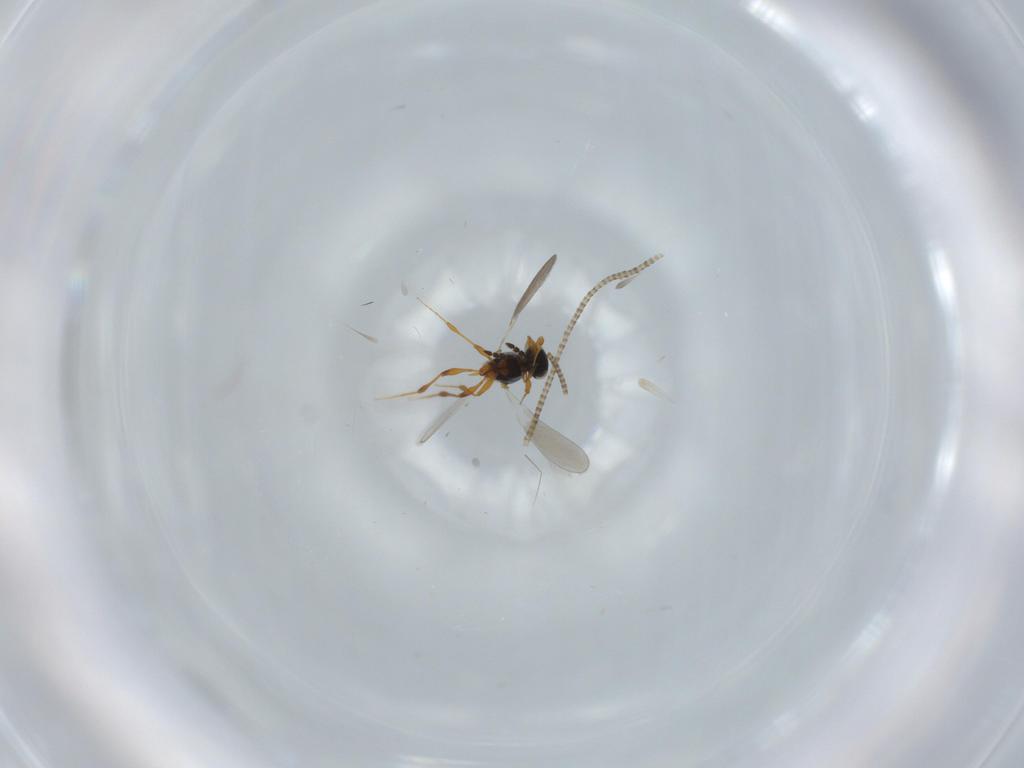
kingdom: Animalia
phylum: Arthropoda
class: Insecta
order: Hymenoptera
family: Platygastridae
